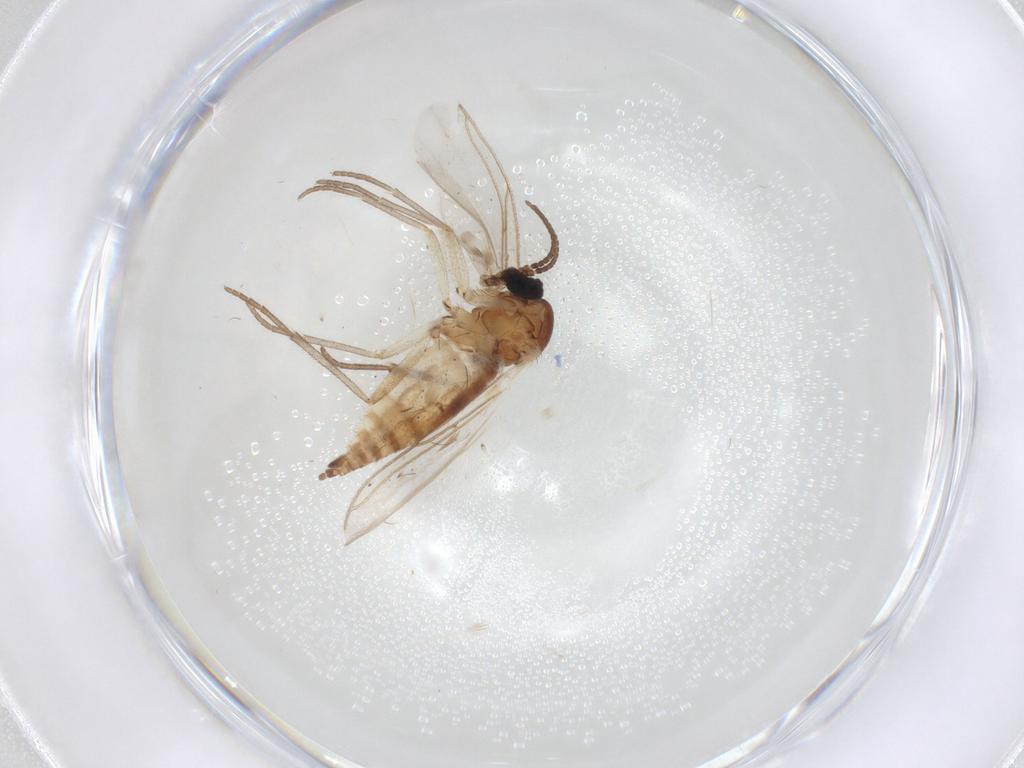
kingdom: Animalia
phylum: Arthropoda
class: Insecta
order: Diptera
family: Sciaridae
